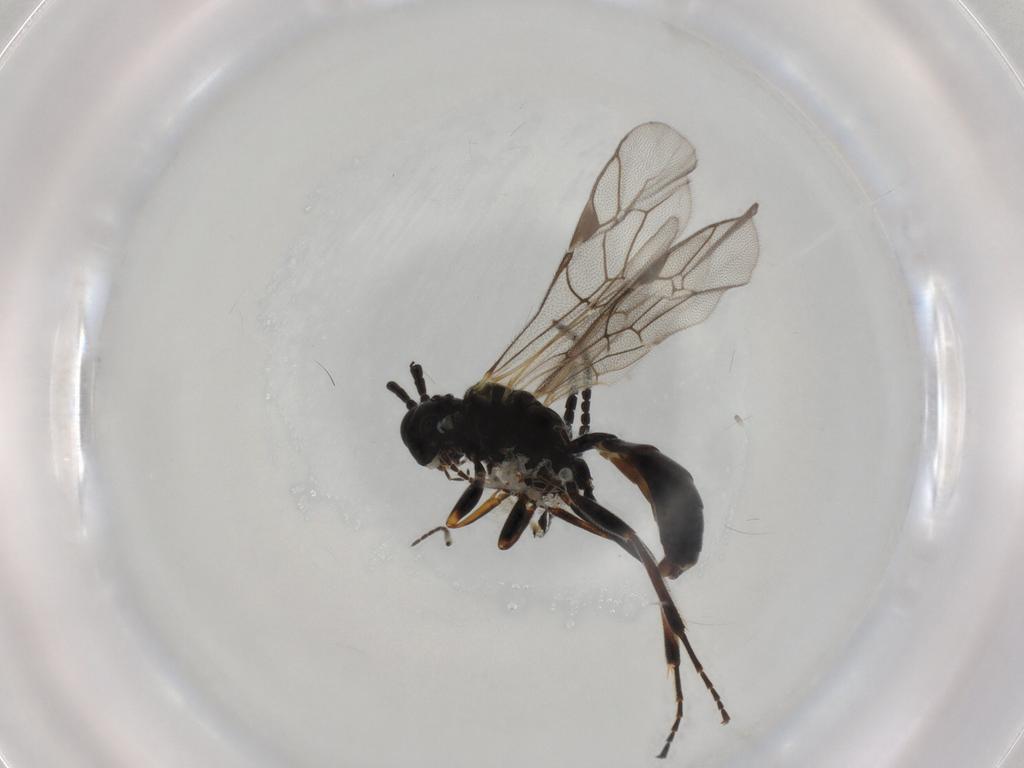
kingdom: Animalia
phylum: Arthropoda
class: Insecta
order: Hymenoptera
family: Ichneumonidae
